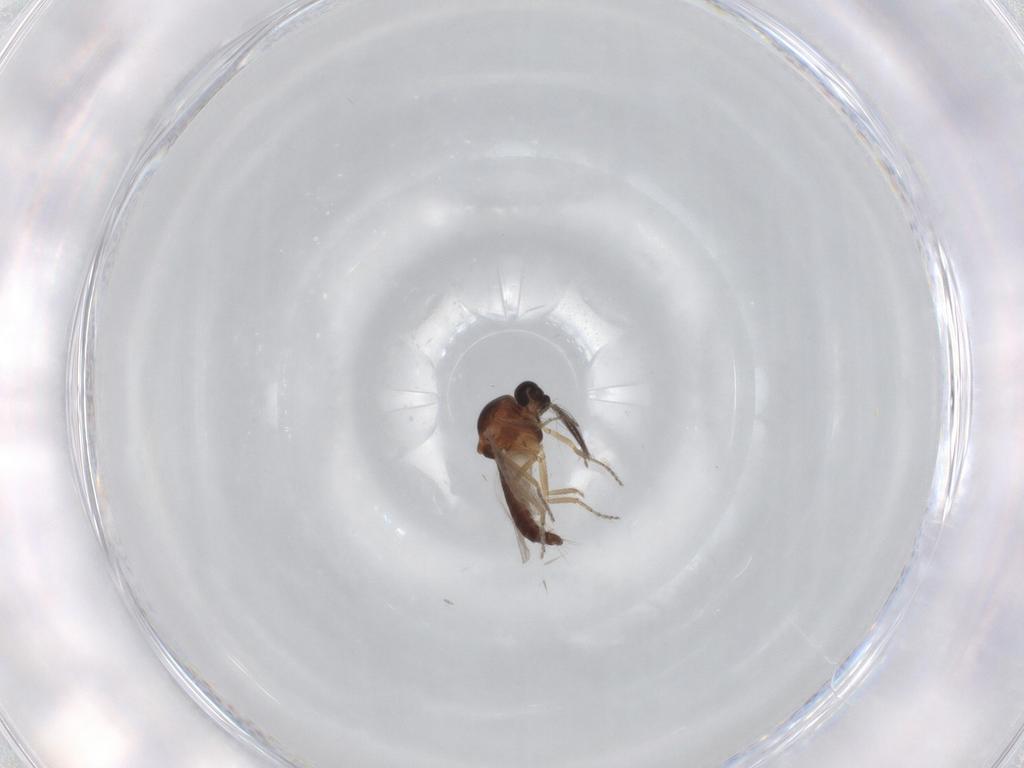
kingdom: Animalia
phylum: Arthropoda
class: Insecta
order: Diptera
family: Ceratopogonidae
